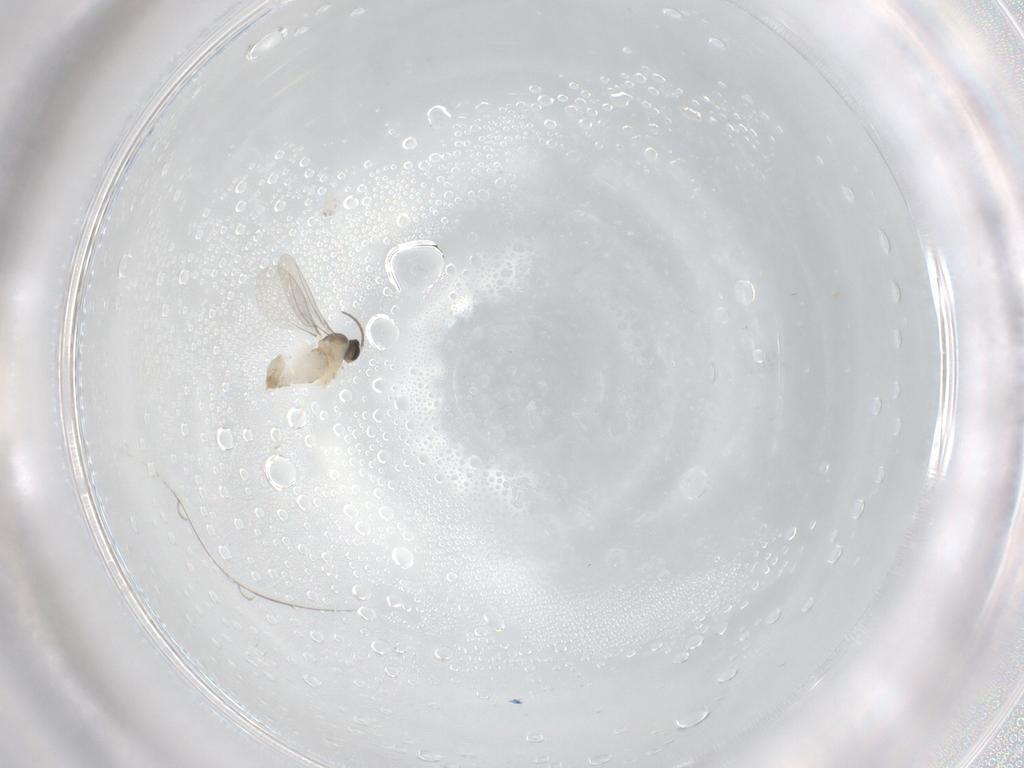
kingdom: Animalia
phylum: Arthropoda
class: Insecta
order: Diptera
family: Cecidomyiidae
